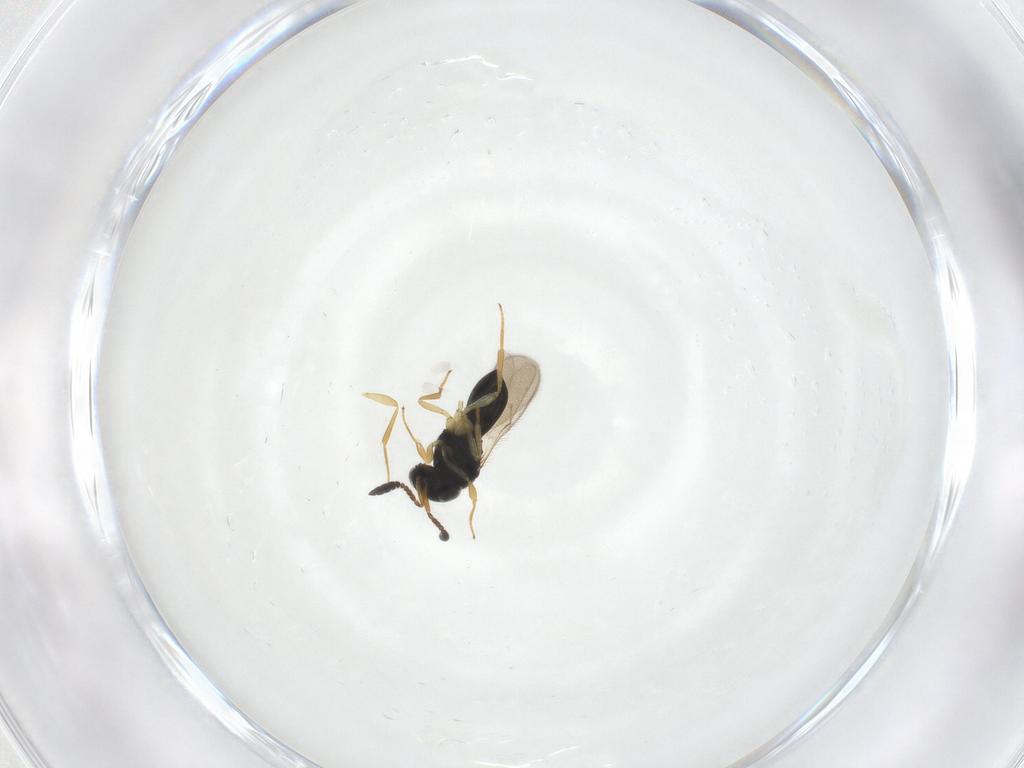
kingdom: Animalia
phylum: Arthropoda
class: Insecta
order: Hymenoptera
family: Scelionidae
